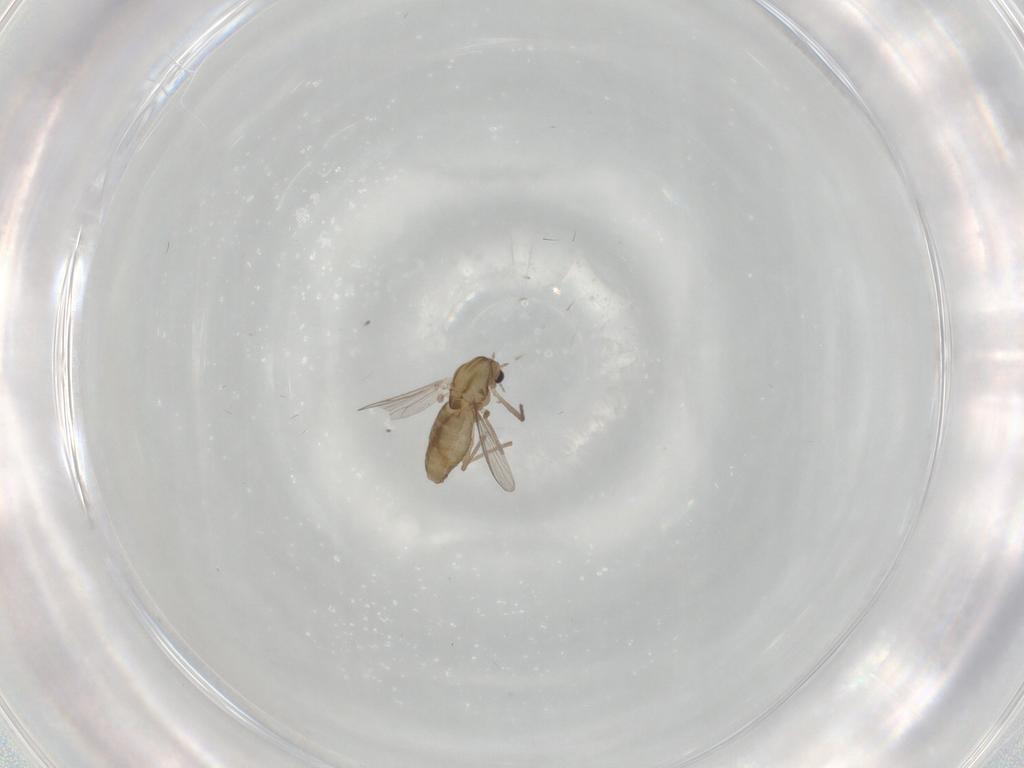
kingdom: Animalia
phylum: Arthropoda
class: Insecta
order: Diptera
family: Chironomidae
